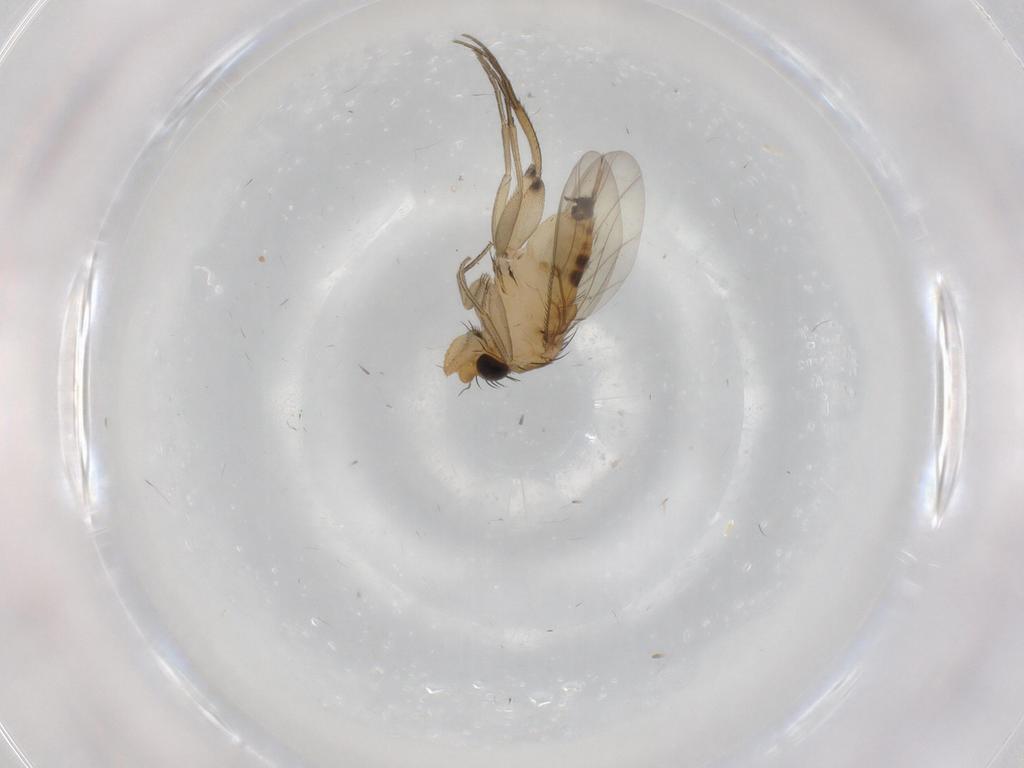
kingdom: Animalia
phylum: Arthropoda
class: Insecta
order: Diptera
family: Phoridae
